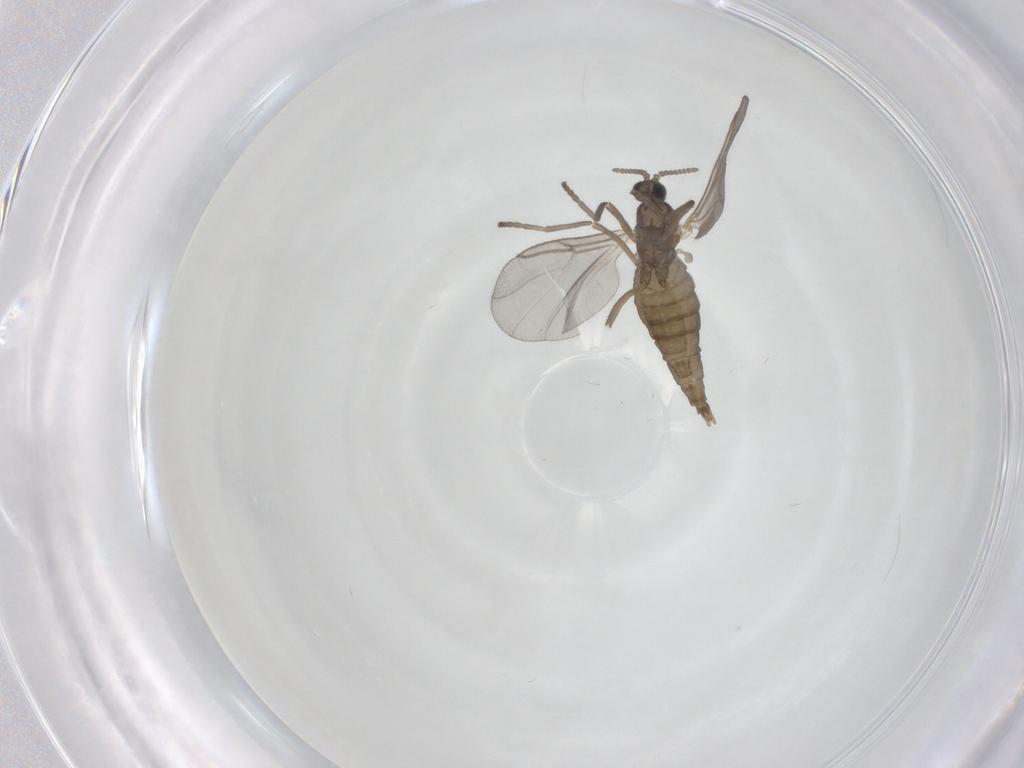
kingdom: Animalia
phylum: Arthropoda
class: Insecta
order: Diptera
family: Cecidomyiidae
